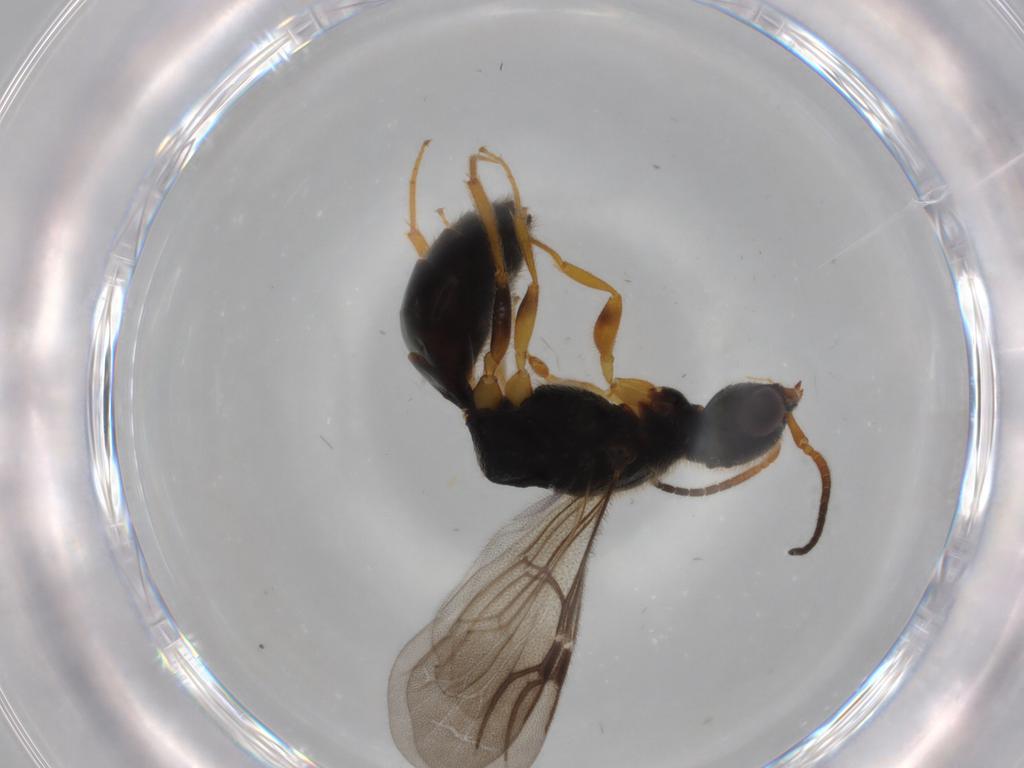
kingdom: Animalia
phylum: Arthropoda
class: Insecta
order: Hymenoptera
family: Bethylidae
